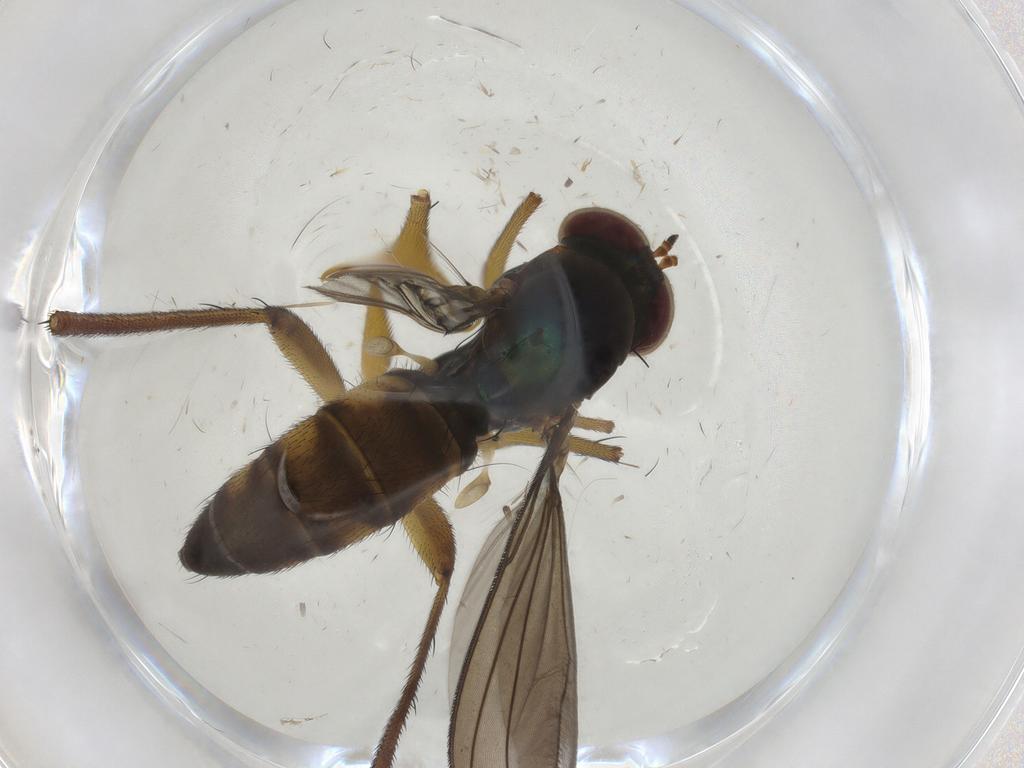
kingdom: Animalia
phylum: Arthropoda
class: Insecta
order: Diptera
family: Dolichopodidae
